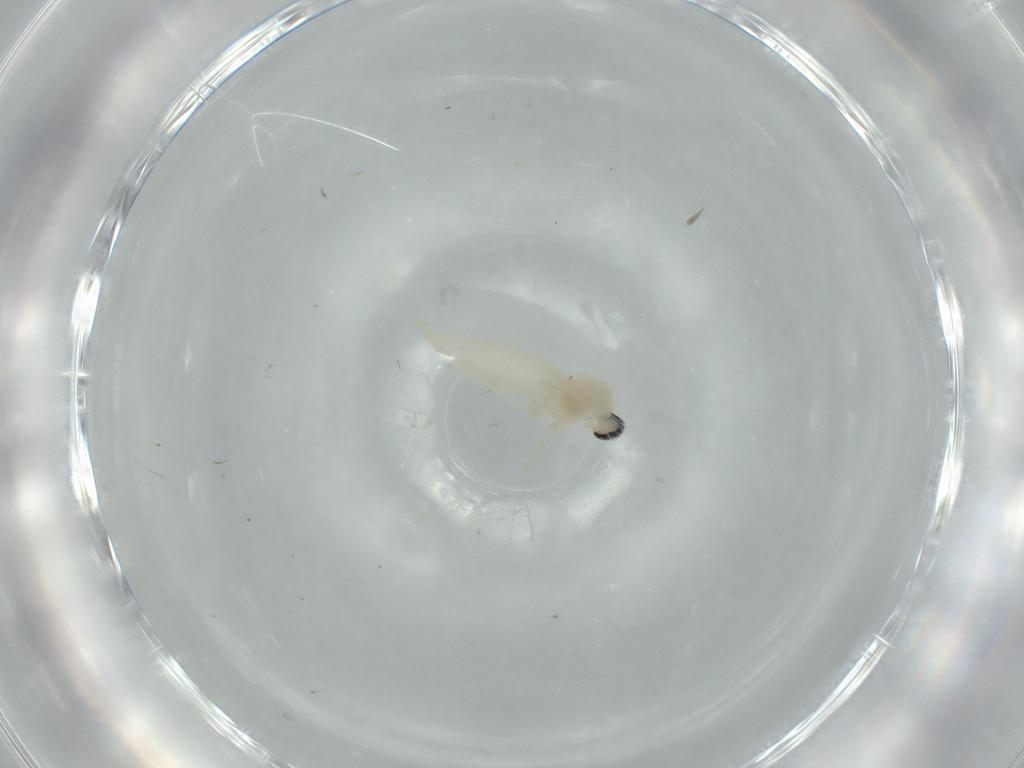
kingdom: Animalia
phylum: Arthropoda
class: Insecta
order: Diptera
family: Cecidomyiidae
